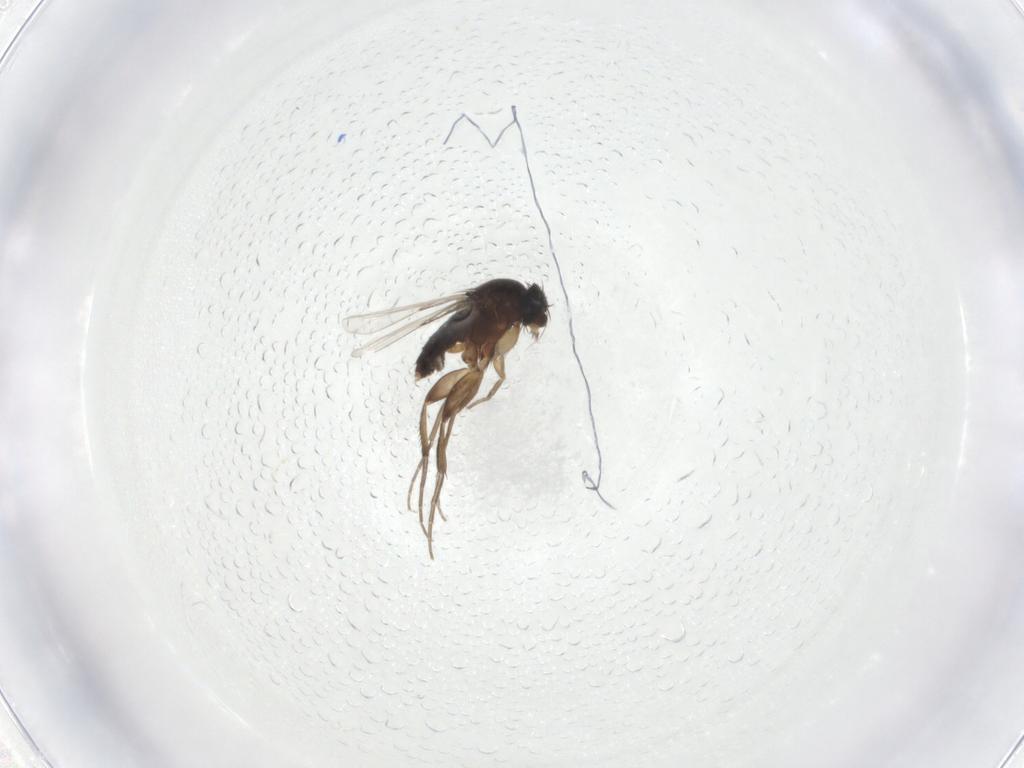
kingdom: Animalia
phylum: Arthropoda
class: Insecta
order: Diptera
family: Phoridae
